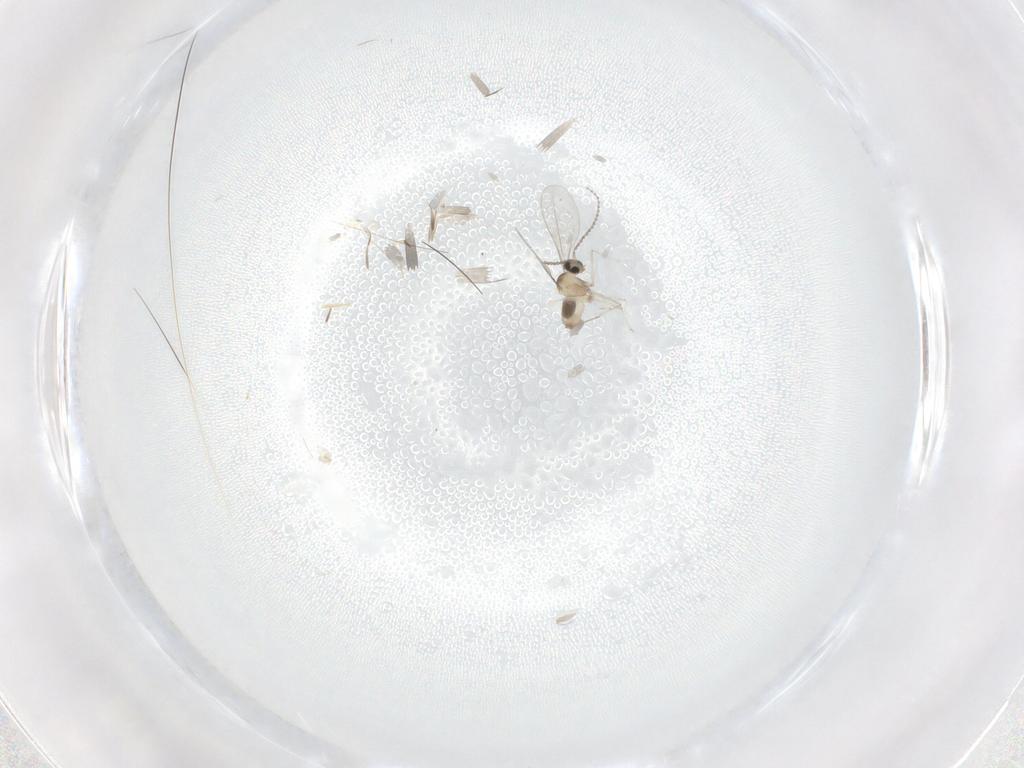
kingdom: Animalia
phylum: Arthropoda
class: Insecta
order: Diptera
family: Cecidomyiidae
